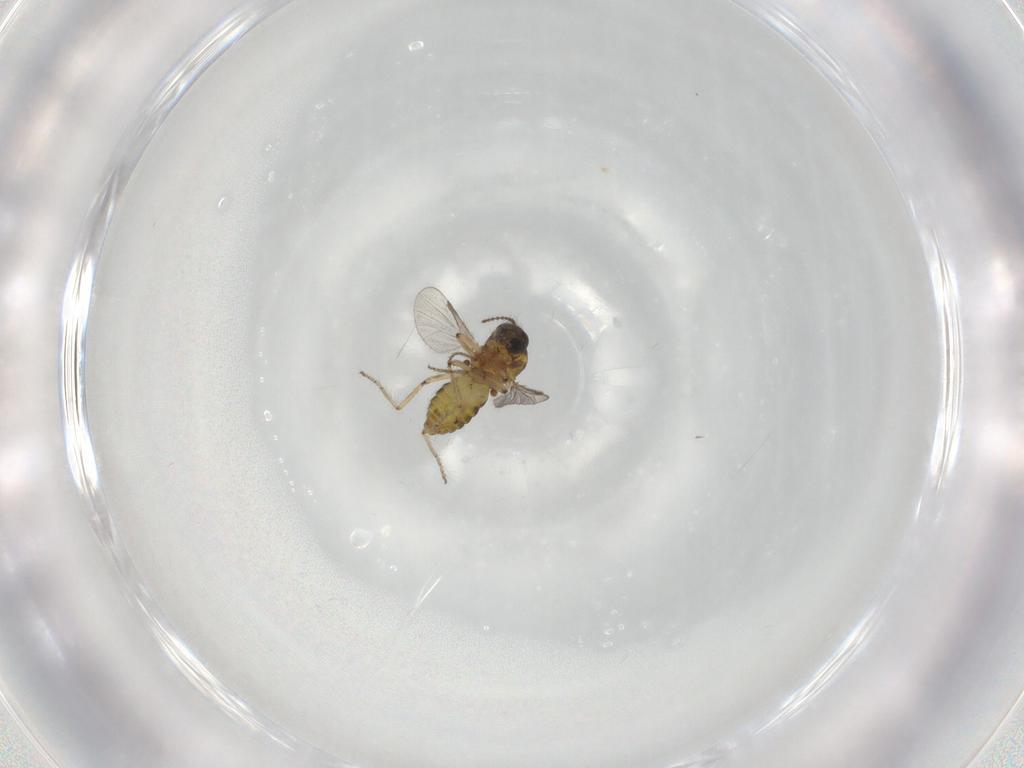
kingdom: Animalia
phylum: Arthropoda
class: Insecta
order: Diptera
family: Ceratopogonidae
